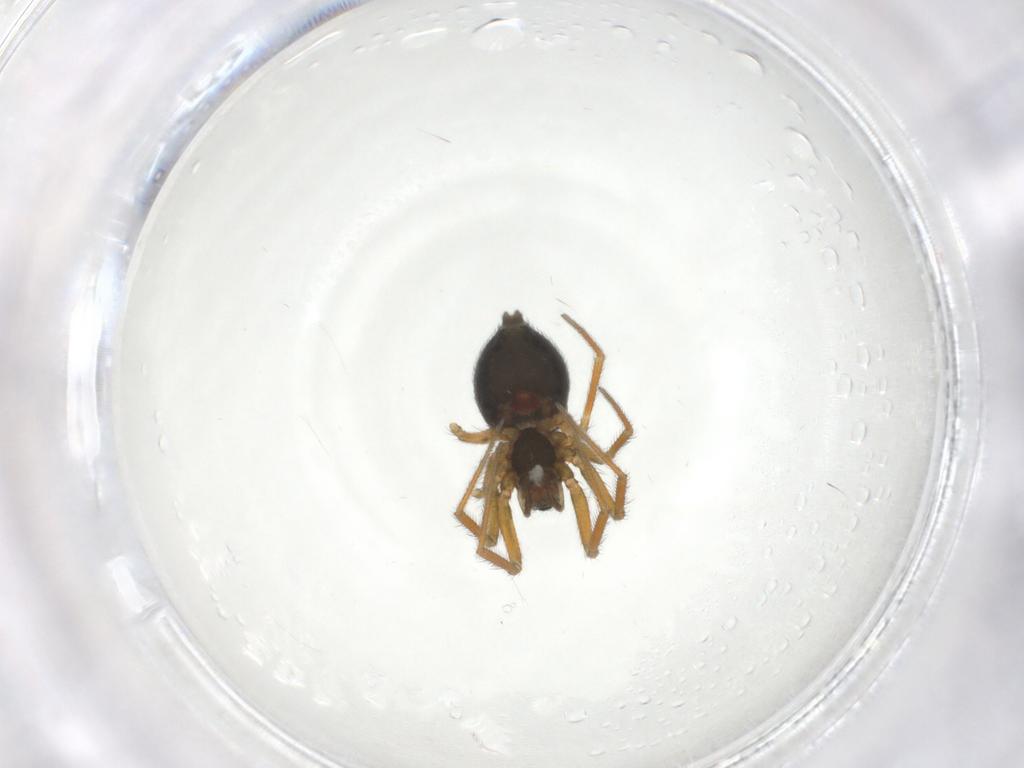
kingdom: Animalia
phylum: Arthropoda
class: Arachnida
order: Araneae
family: Linyphiidae
